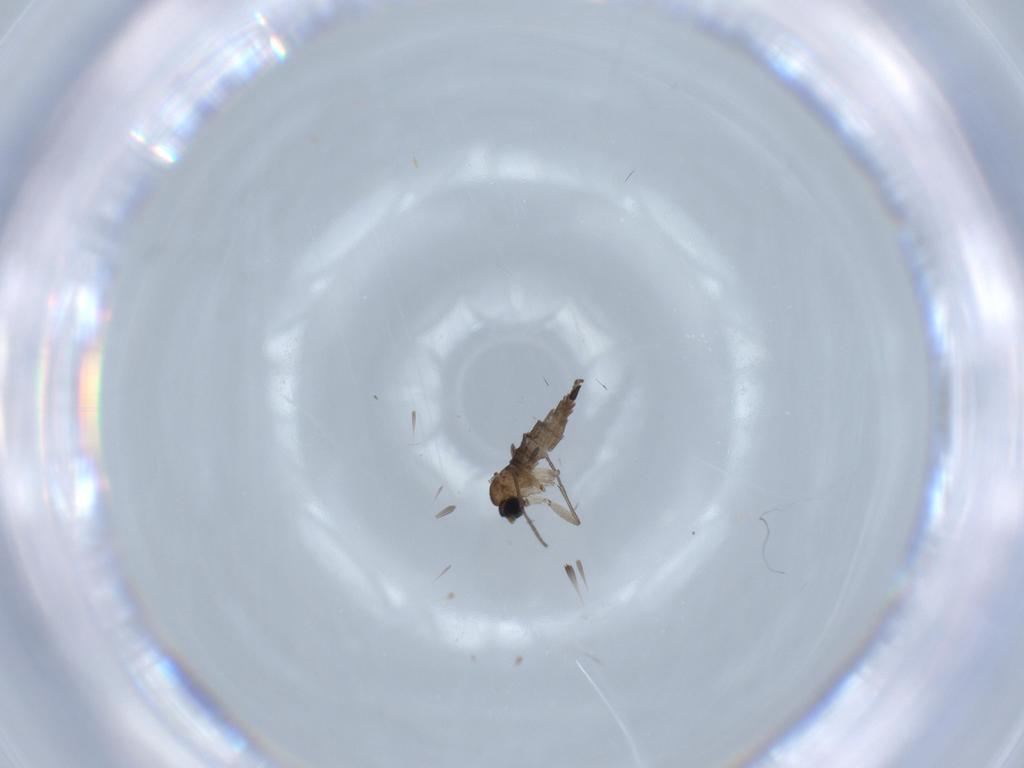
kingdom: Animalia
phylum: Arthropoda
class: Insecta
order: Diptera
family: Sciaridae
